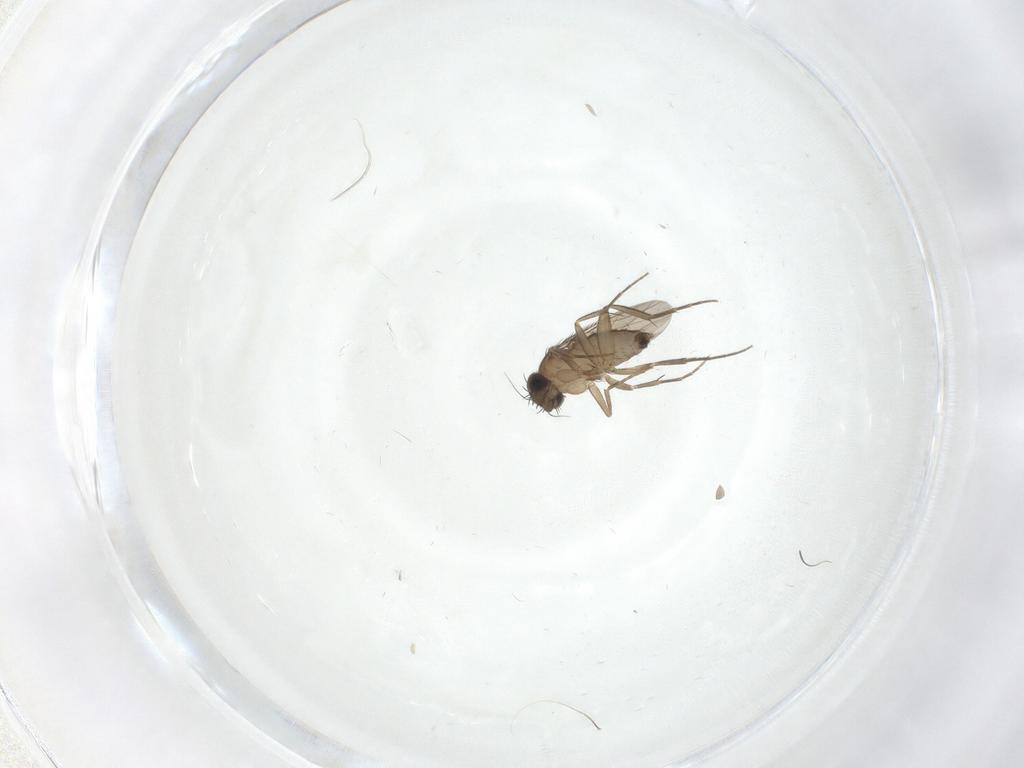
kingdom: Animalia
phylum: Arthropoda
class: Insecta
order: Diptera
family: Phoridae
